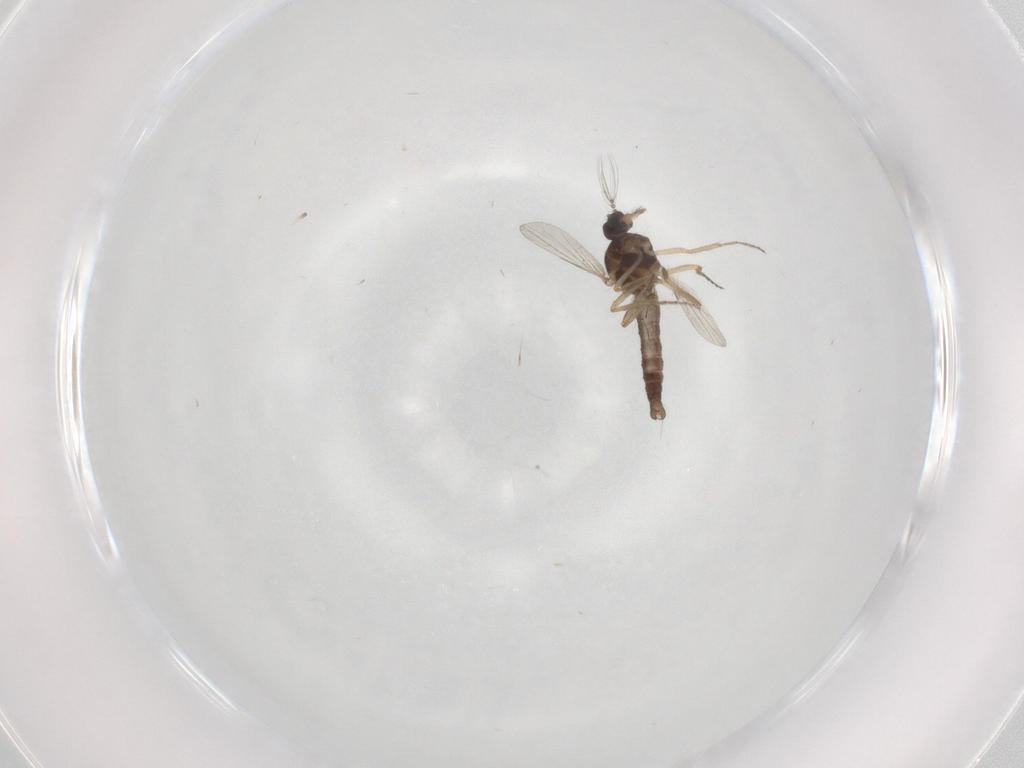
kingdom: Animalia
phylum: Arthropoda
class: Insecta
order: Diptera
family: Ceratopogonidae
